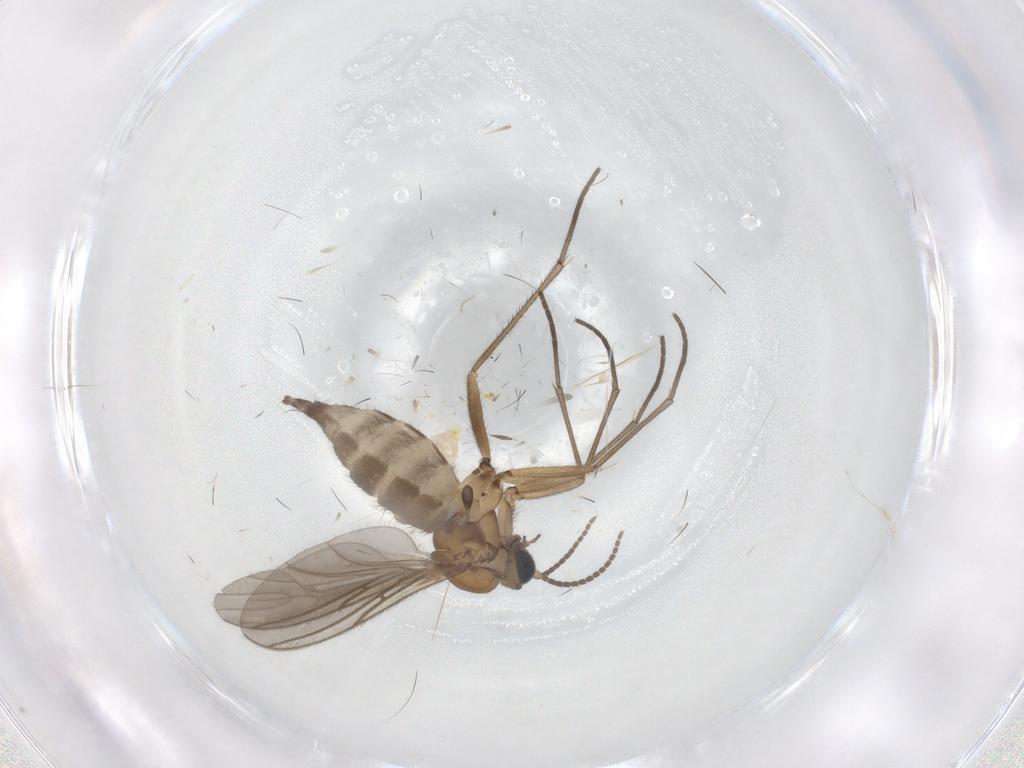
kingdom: Animalia
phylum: Arthropoda
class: Insecta
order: Diptera
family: Sciaridae
